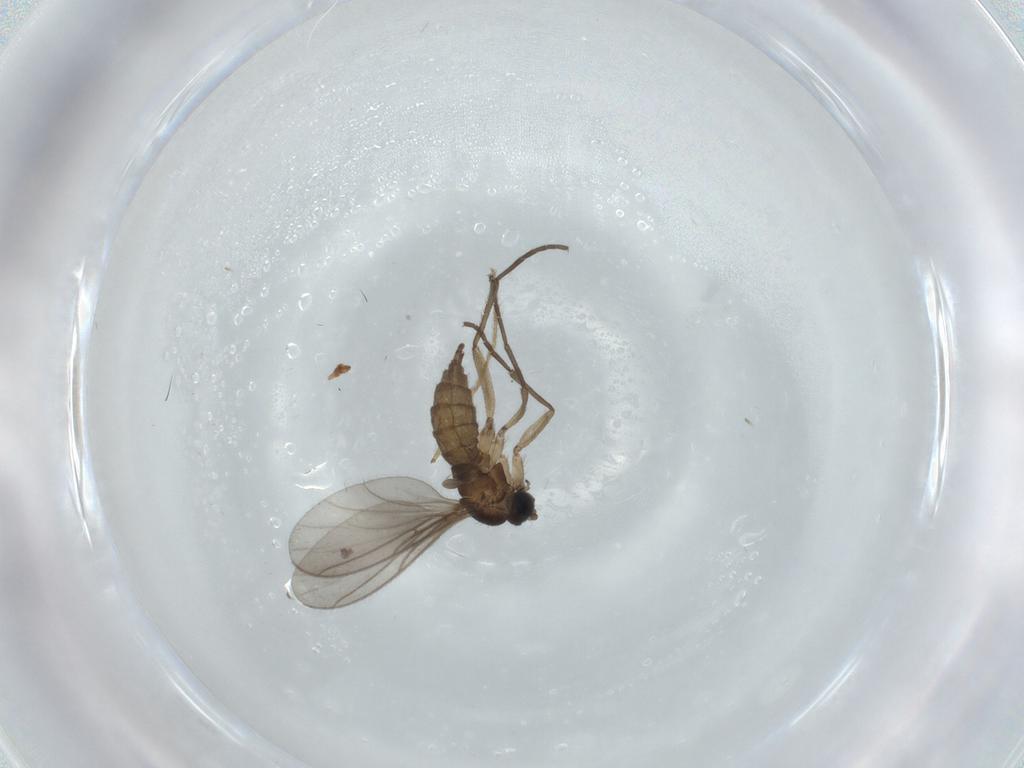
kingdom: Animalia
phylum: Arthropoda
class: Insecta
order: Diptera
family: Sciaridae
